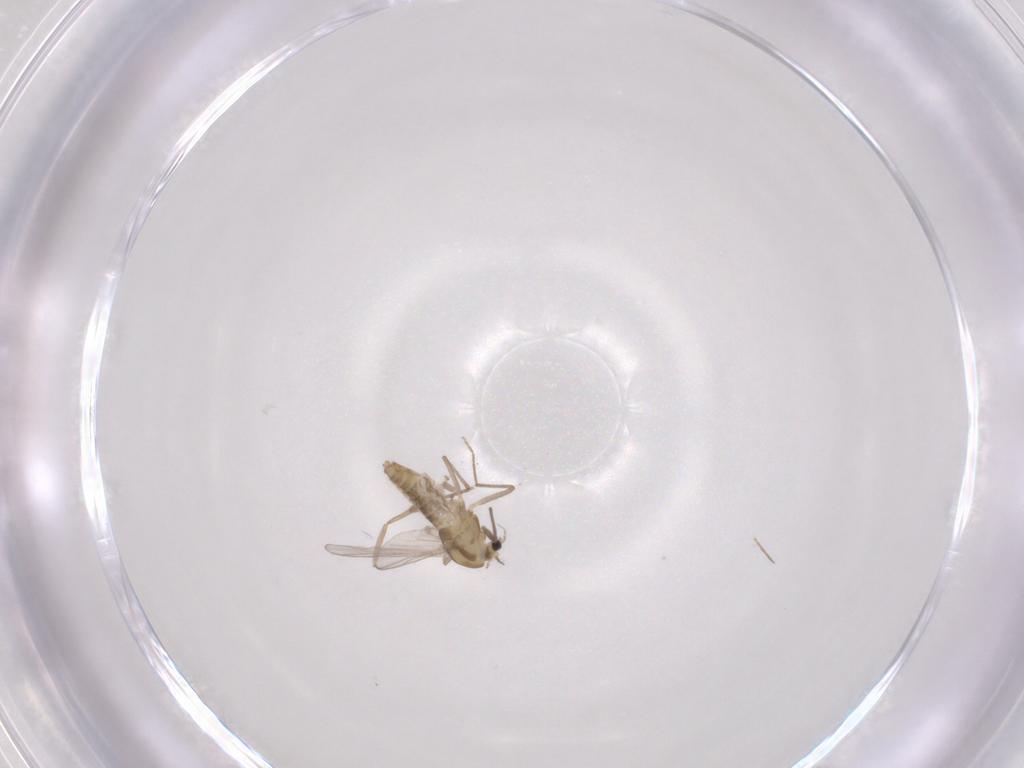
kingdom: Animalia
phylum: Arthropoda
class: Insecta
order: Diptera
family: Chironomidae
